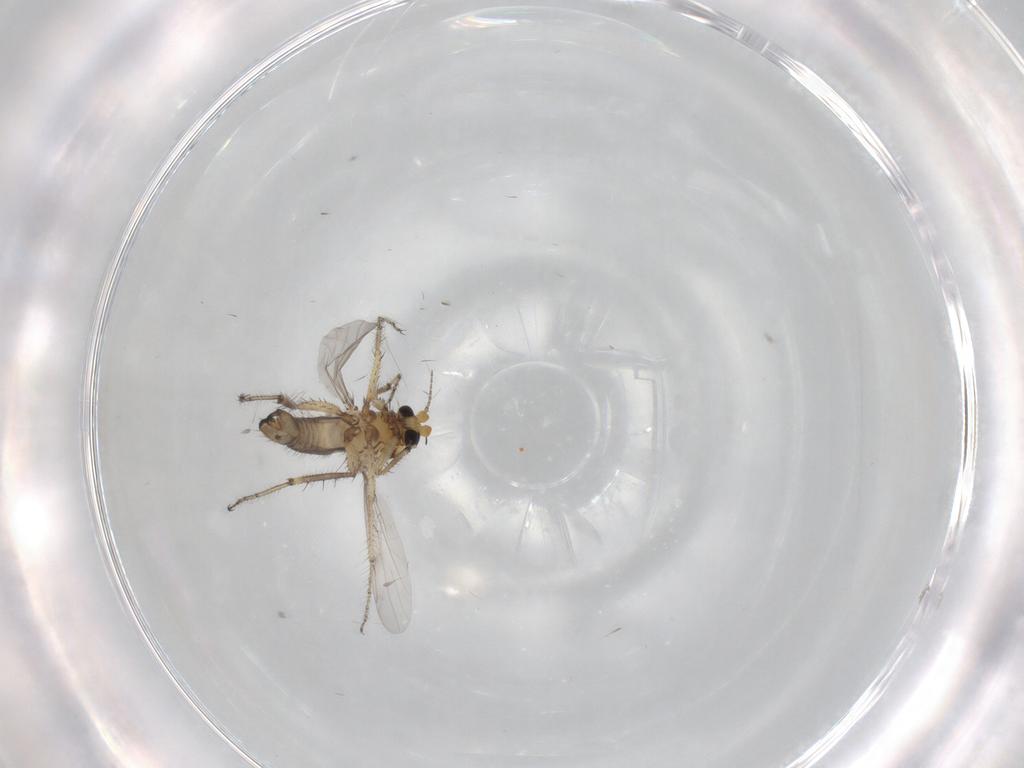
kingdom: Animalia
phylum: Arthropoda
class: Insecta
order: Diptera
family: Ceratopogonidae
